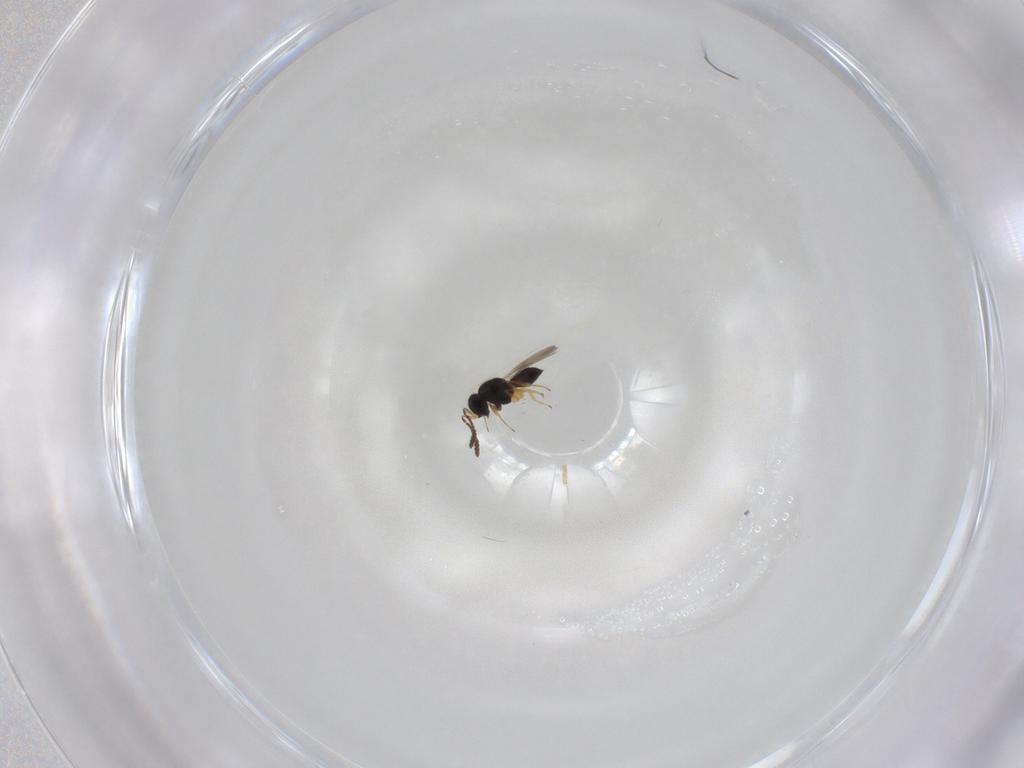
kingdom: Animalia
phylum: Arthropoda
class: Insecta
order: Hymenoptera
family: Scelionidae
